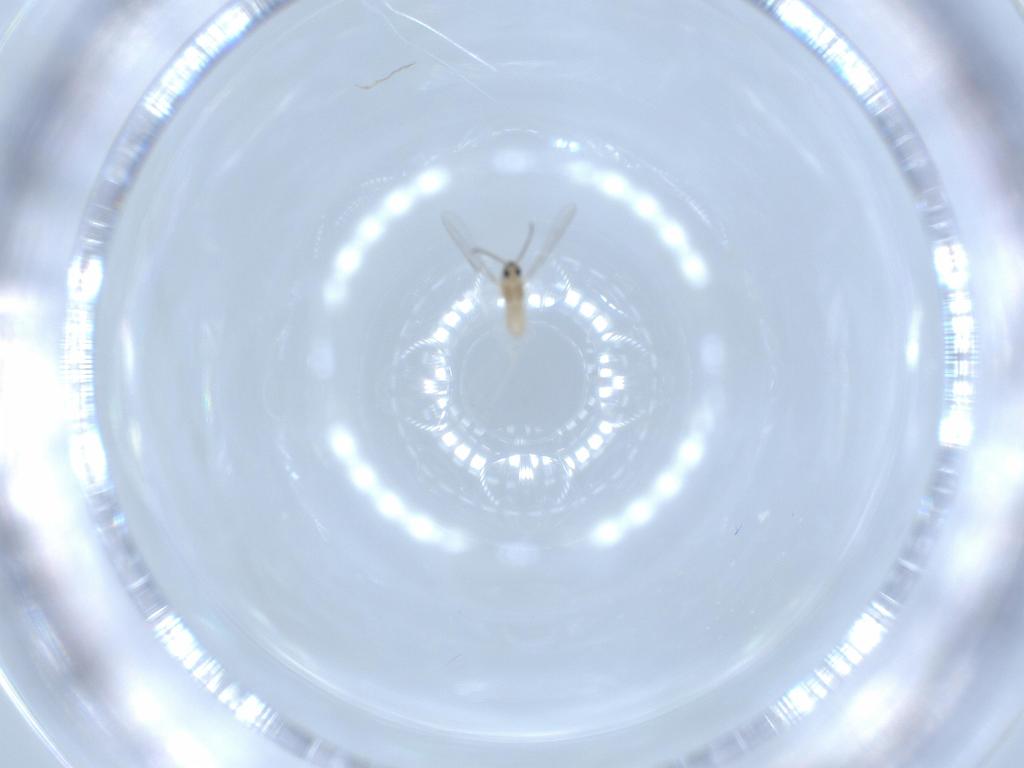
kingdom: Animalia
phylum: Arthropoda
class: Insecta
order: Diptera
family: Cecidomyiidae
